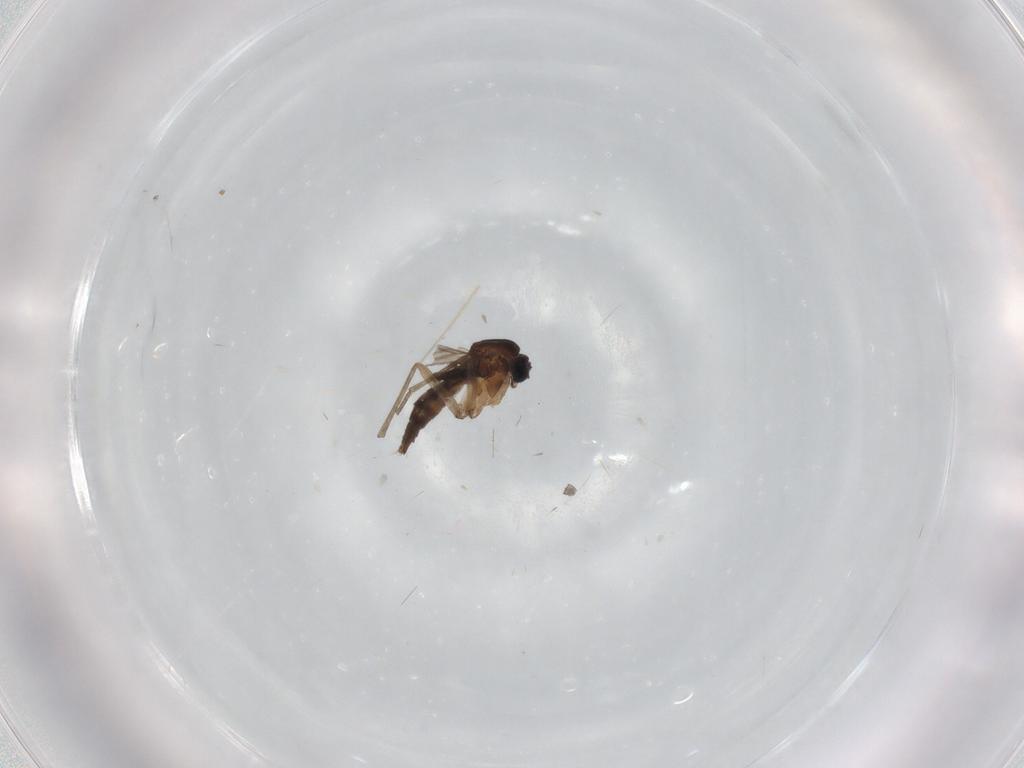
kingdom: Animalia
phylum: Arthropoda
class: Insecta
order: Diptera
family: Sciaridae
